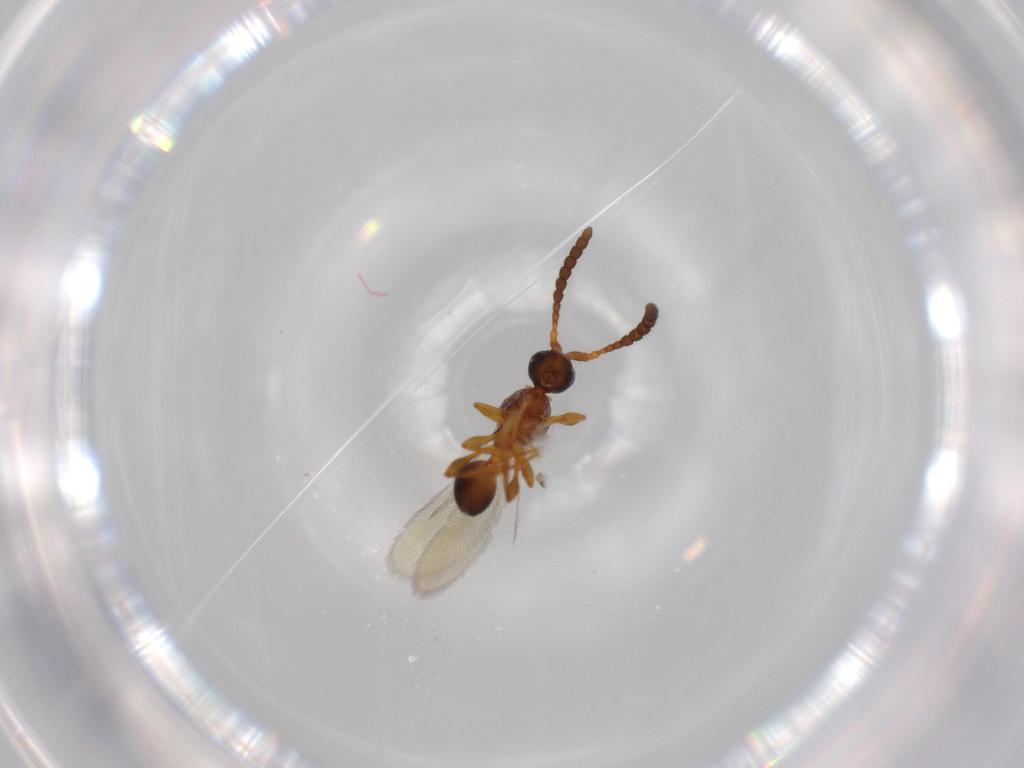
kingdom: Animalia
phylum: Arthropoda
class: Insecta
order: Hymenoptera
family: Diapriidae
